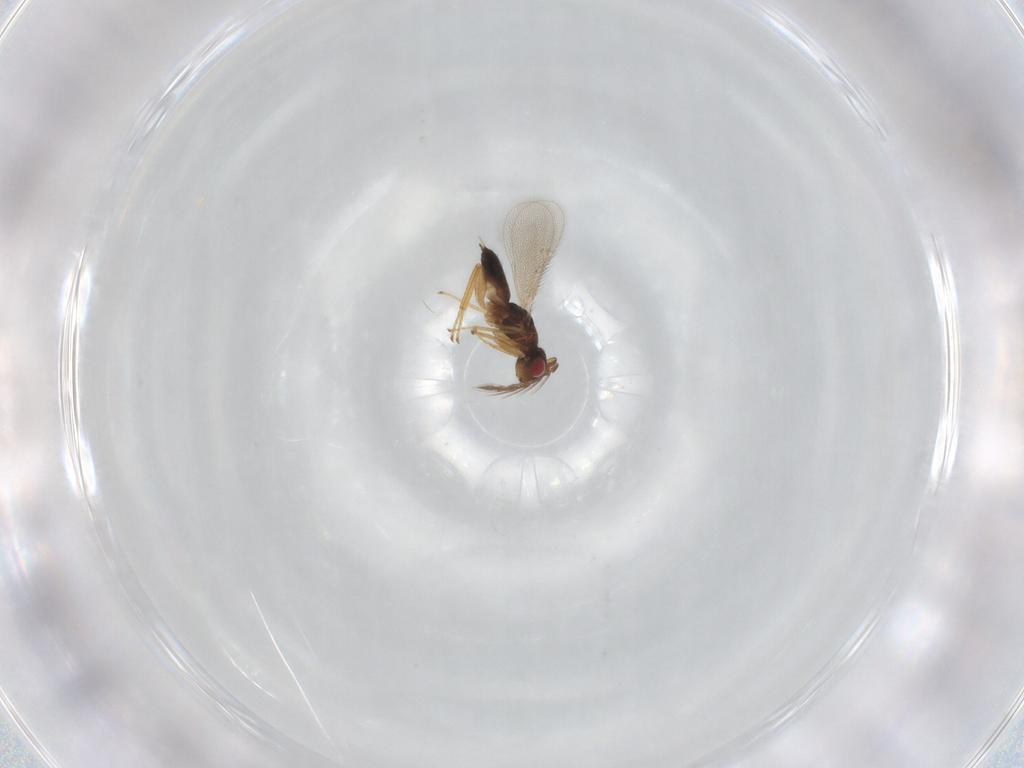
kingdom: Animalia
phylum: Arthropoda
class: Insecta
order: Hymenoptera
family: Eulophidae
